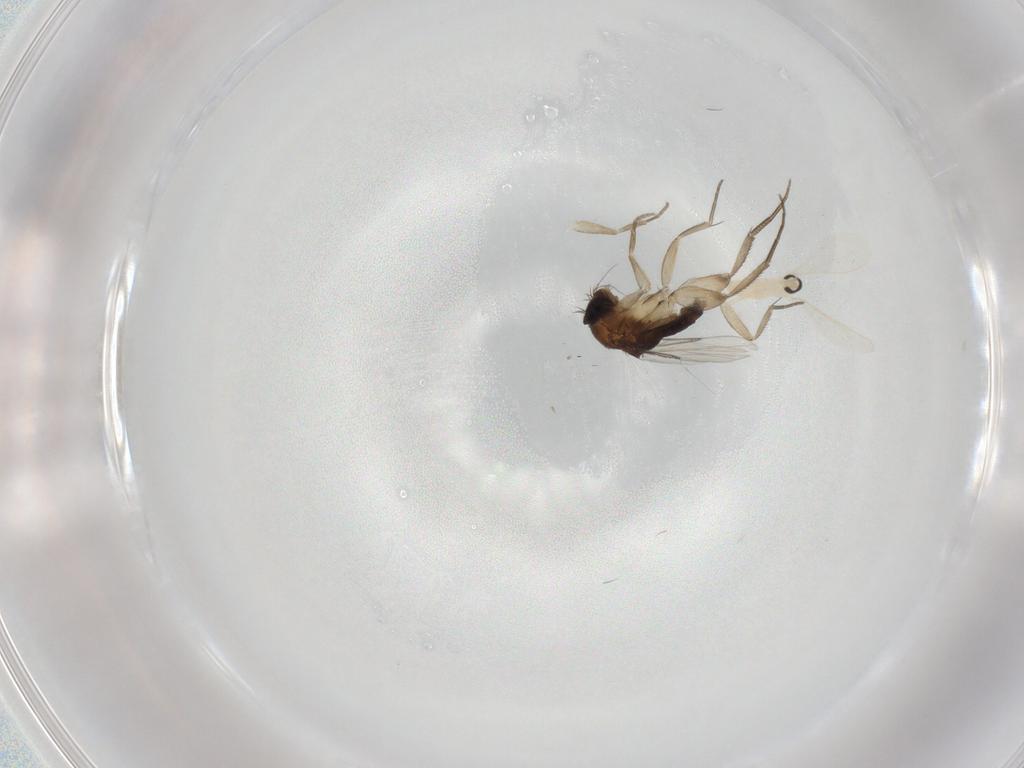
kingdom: Animalia
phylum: Arthropoda
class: Insecta
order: Diptera
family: Phoridae
